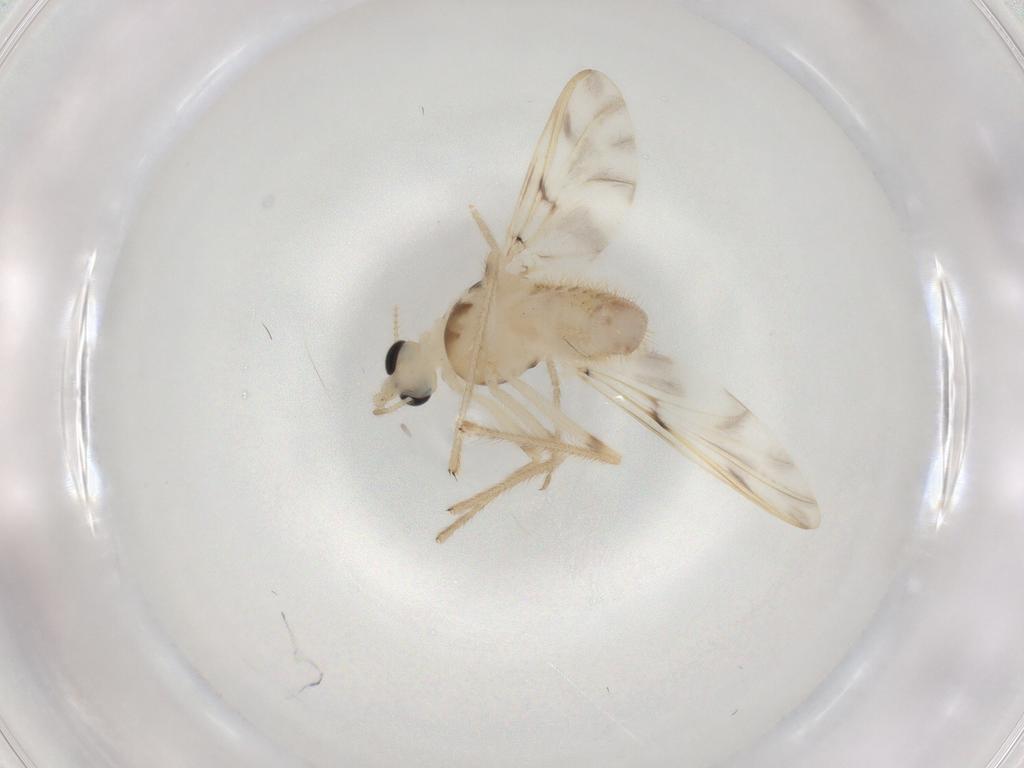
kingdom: Animalia
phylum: Arthropoda
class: Insecta
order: Diptera
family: Chironomidae
